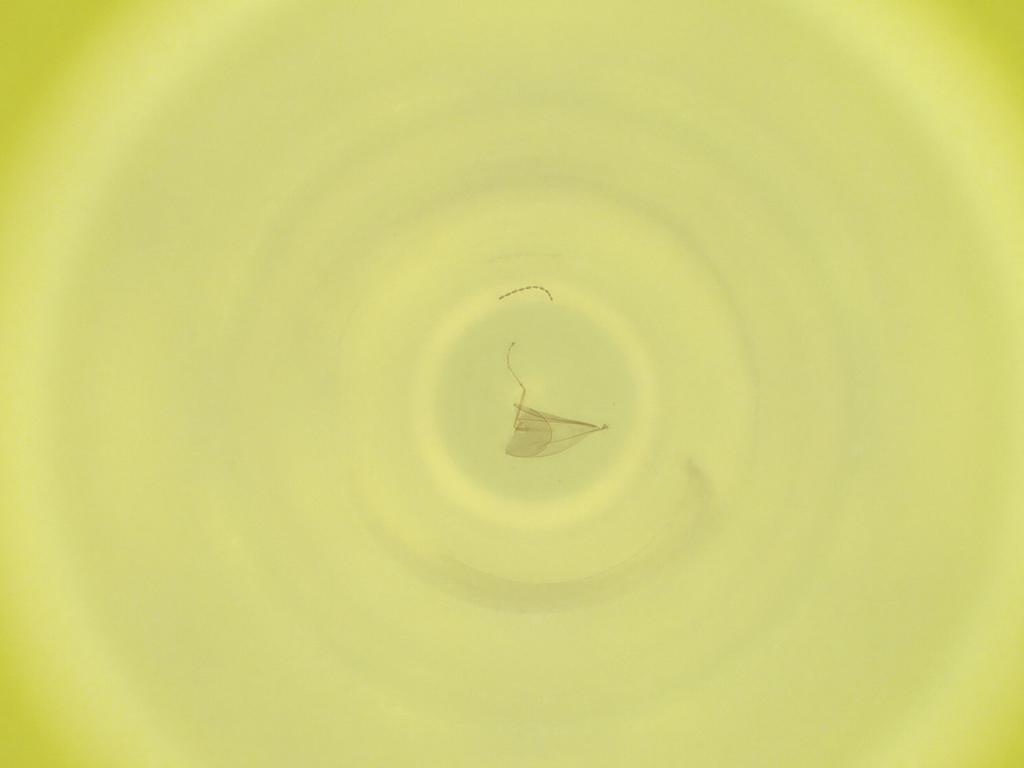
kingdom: Animalia
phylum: Arthropoda
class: Insecta
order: Diptera
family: Cecidomyiidae
